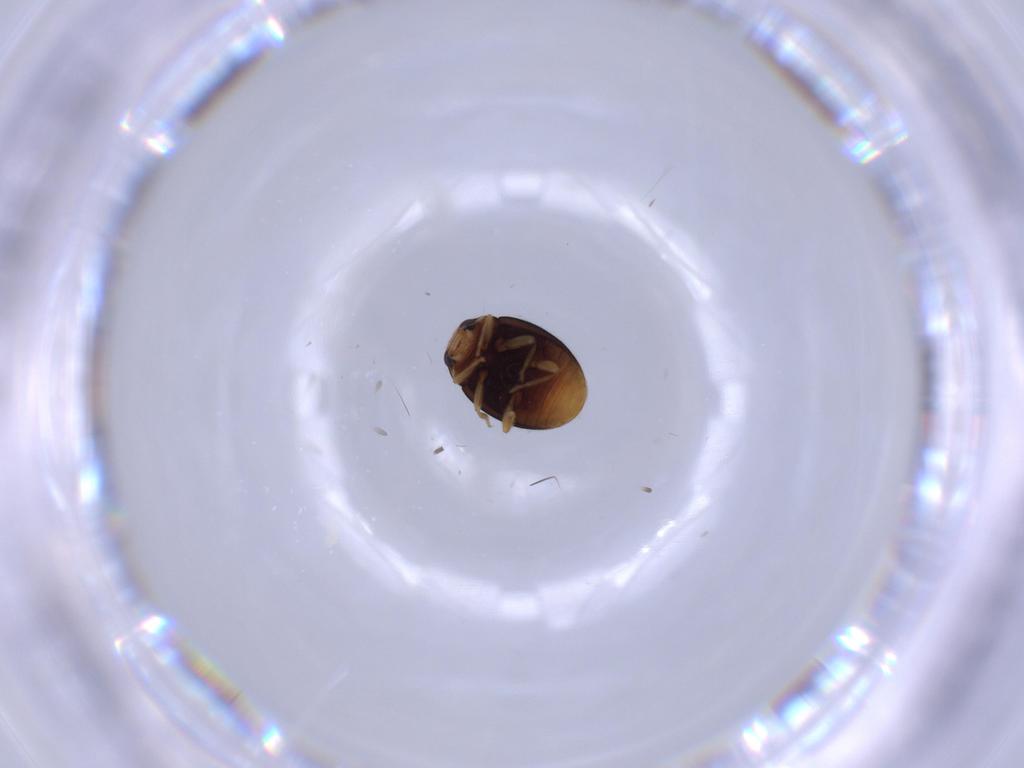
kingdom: Animalia
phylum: Arthropoda
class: Insecta
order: Coleoptera
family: Coccinellidae
